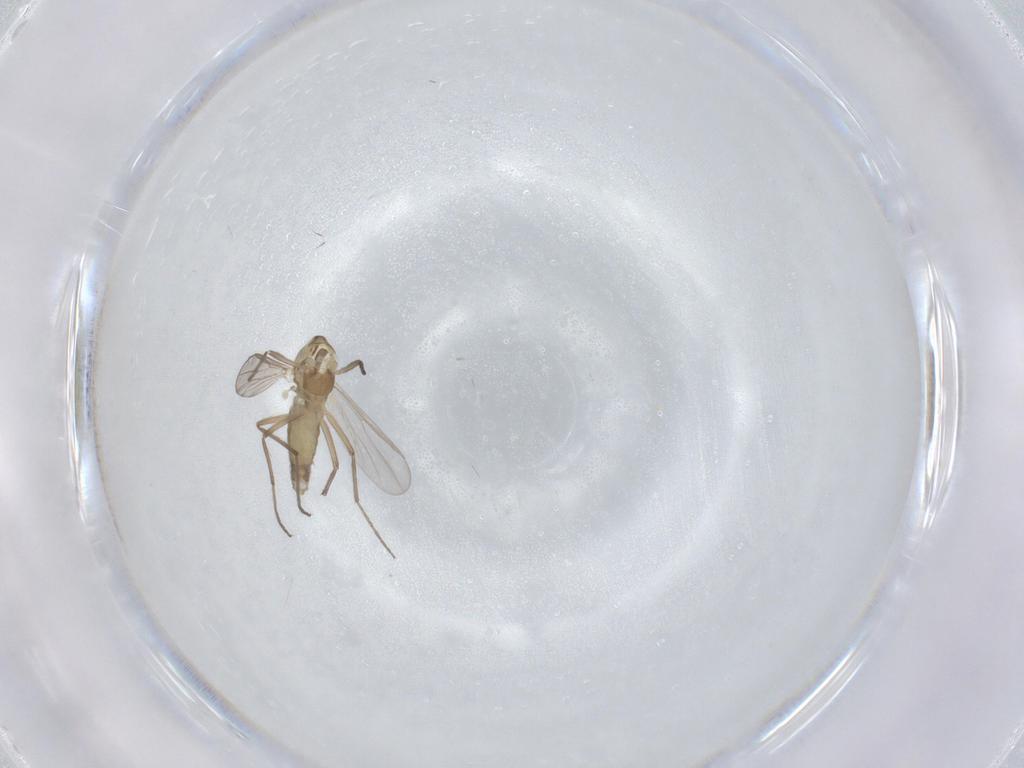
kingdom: Animalia
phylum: Arthropoda
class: Insecta
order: Diptera
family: Chironomidae
